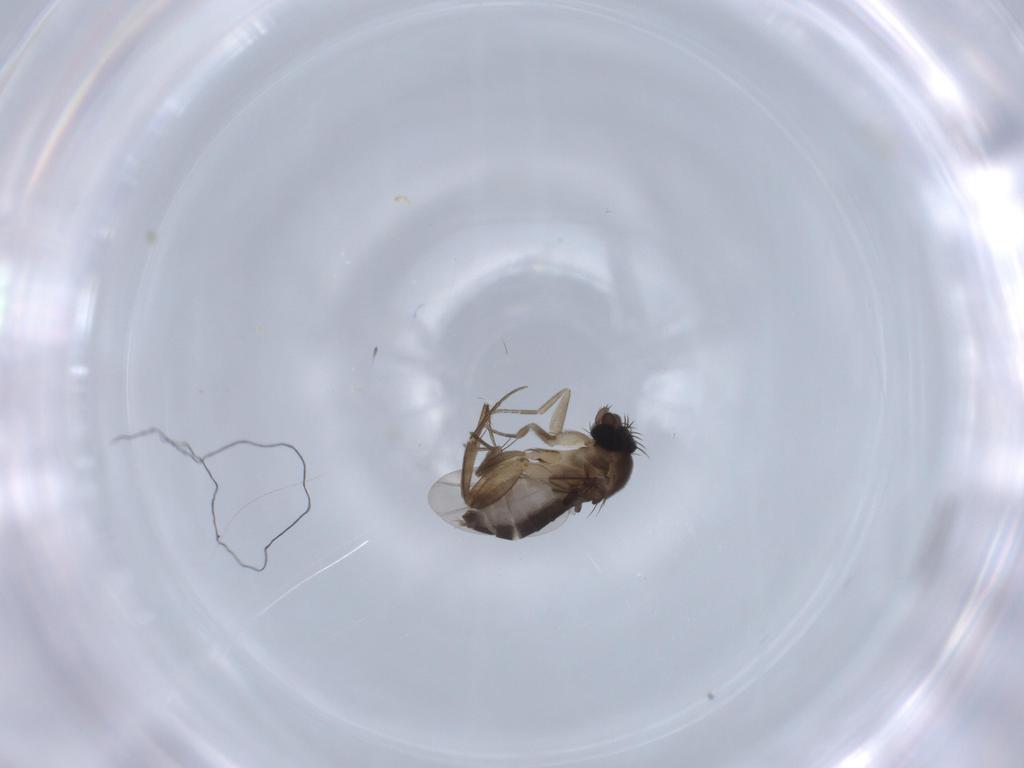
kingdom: Animalia
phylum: Arthropoda
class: Insecta
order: Diptera
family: Phoridae
